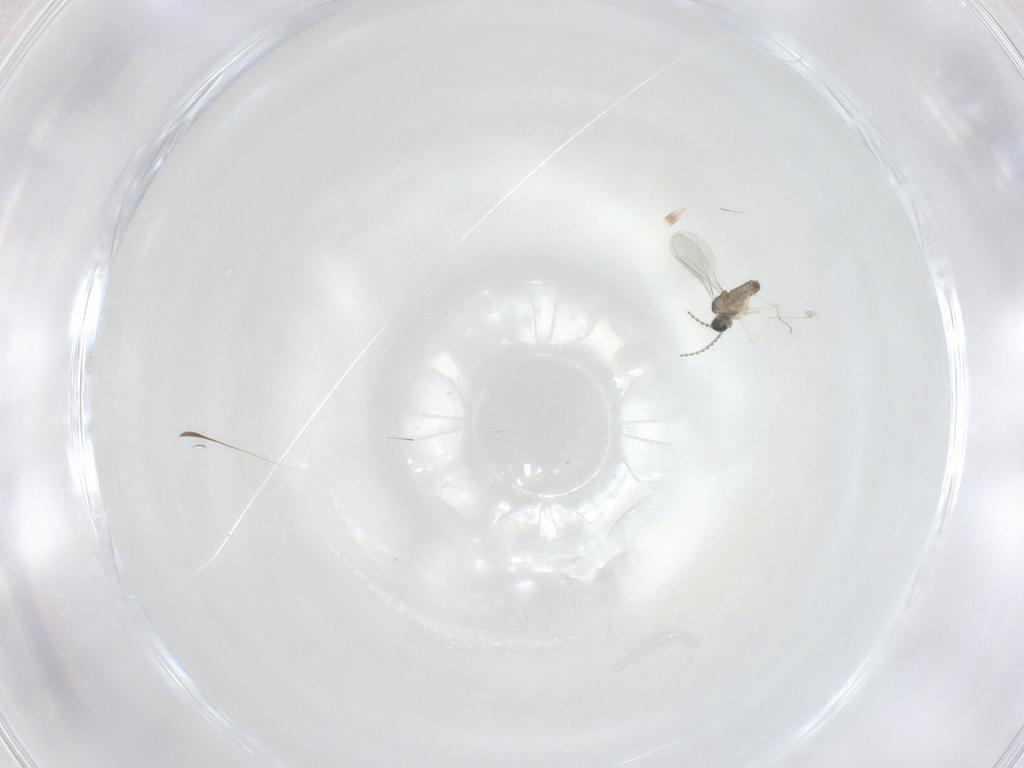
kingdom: Animalia
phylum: Arthropoda
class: Insecta
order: Diptera
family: Cecidomyiidae
